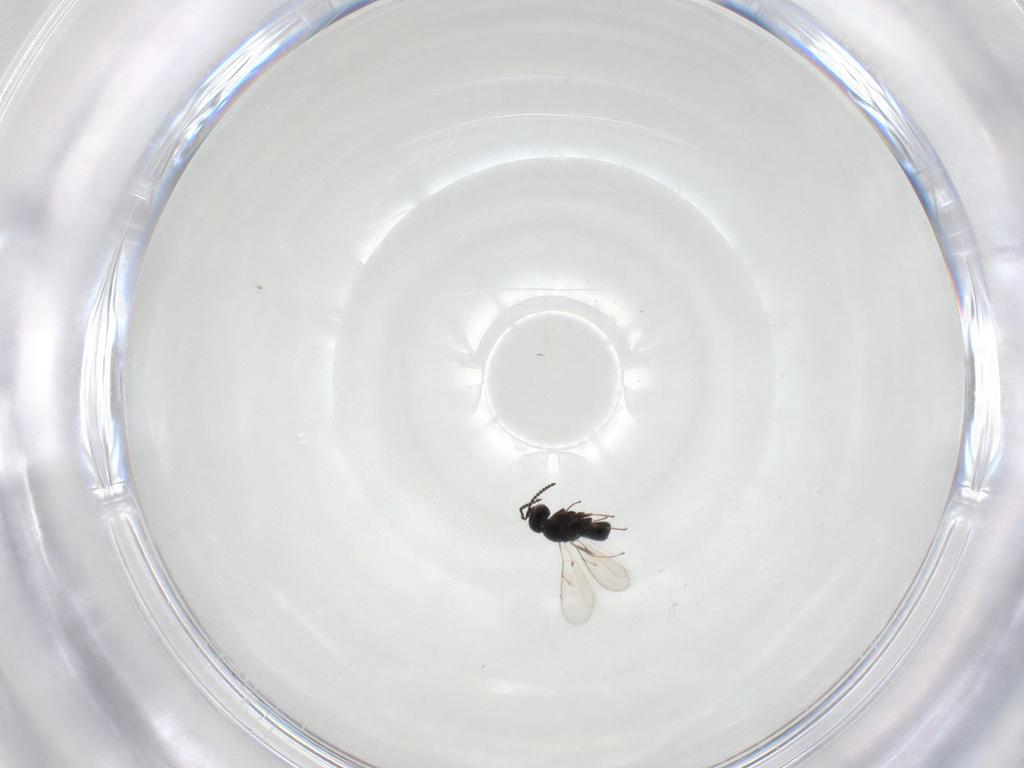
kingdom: Animalia
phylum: Arthropoda
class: Insecta
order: Hymenoptera
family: Scelionidae
